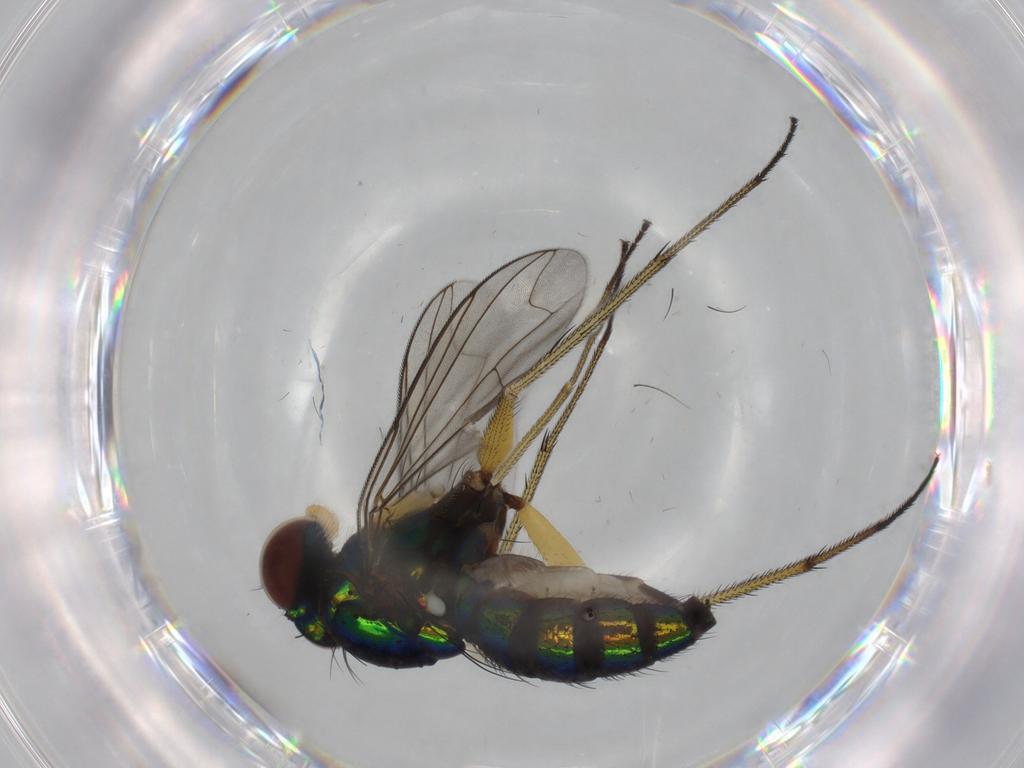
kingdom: Animalia
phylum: Arthropoda
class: Insecta
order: Diptera
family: Dolichopodidae
